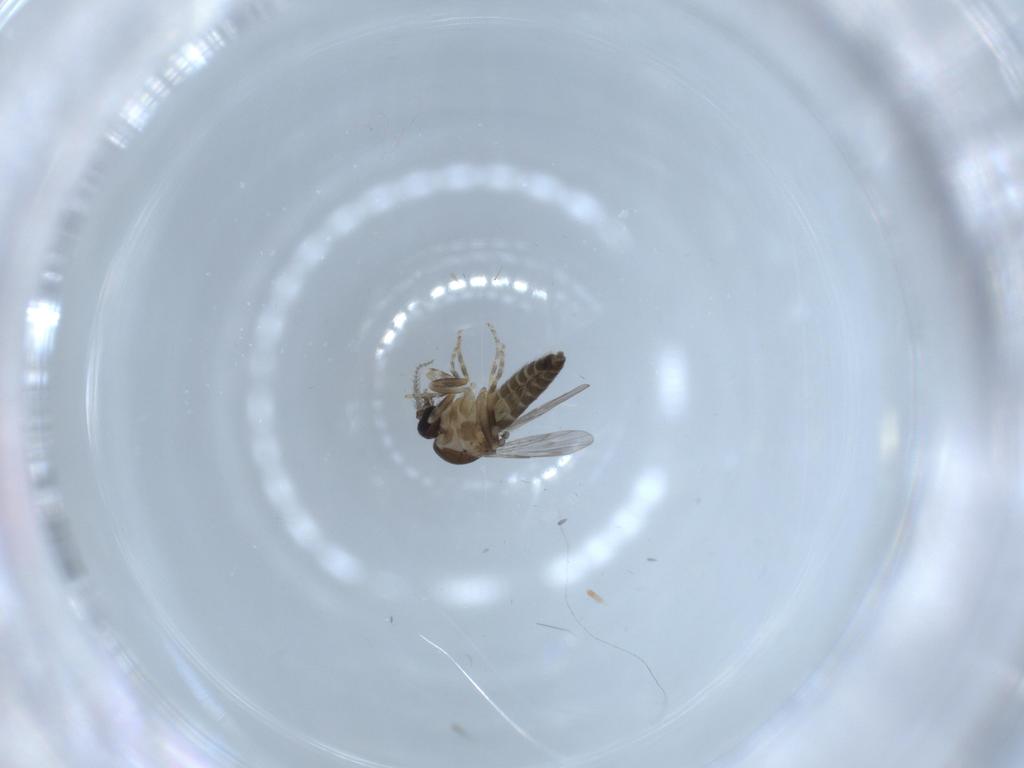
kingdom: Animalia
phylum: Arthropoda
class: Insecta
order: Diptera
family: Ceratopogonidae
